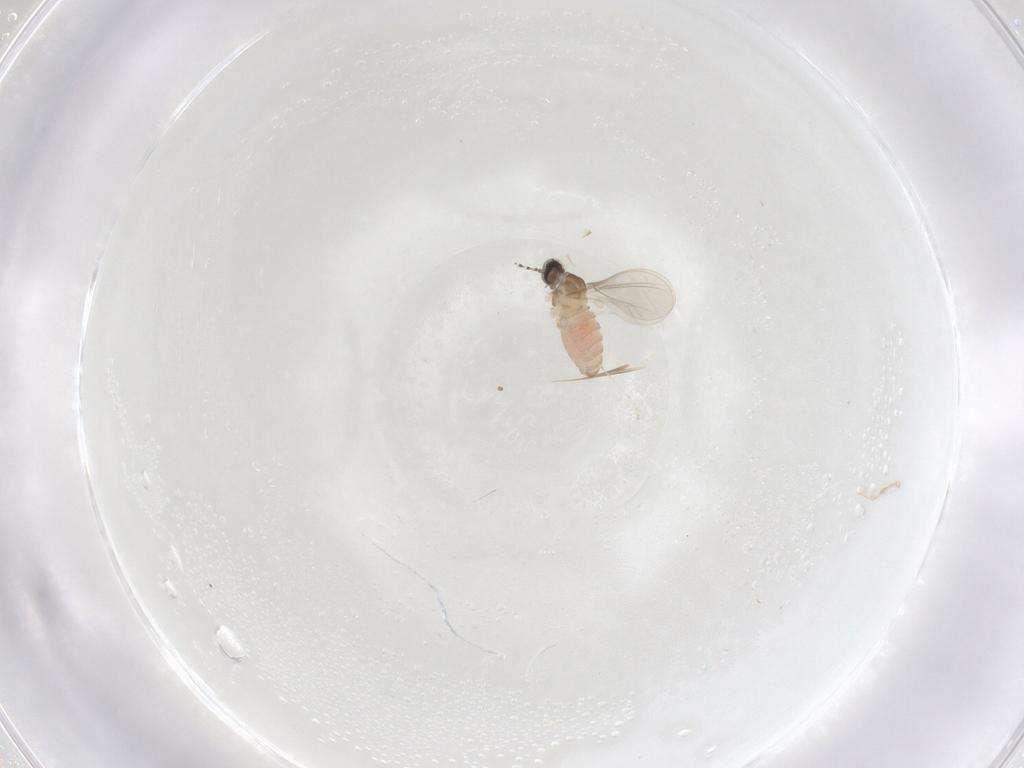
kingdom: Animalia
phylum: Arthropoda
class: Insecta
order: Diptera
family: Cecidomyiidae
